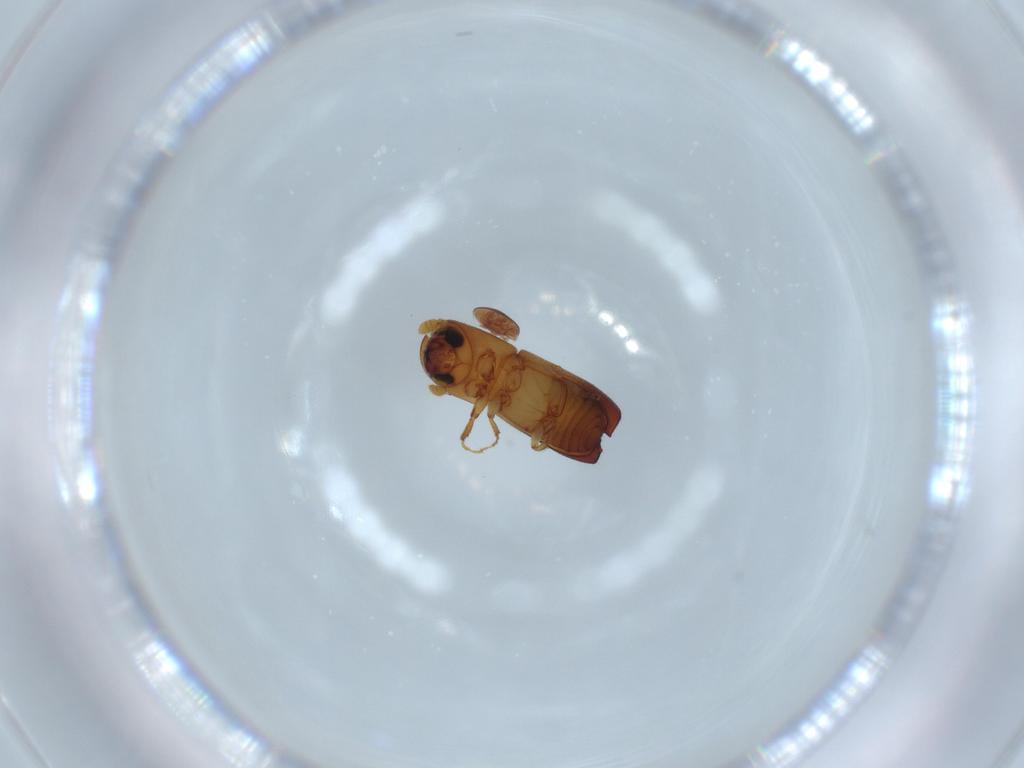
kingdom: Animalia
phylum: Arthropoda
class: Insecta
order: Coleoptera
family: Curculionidae
